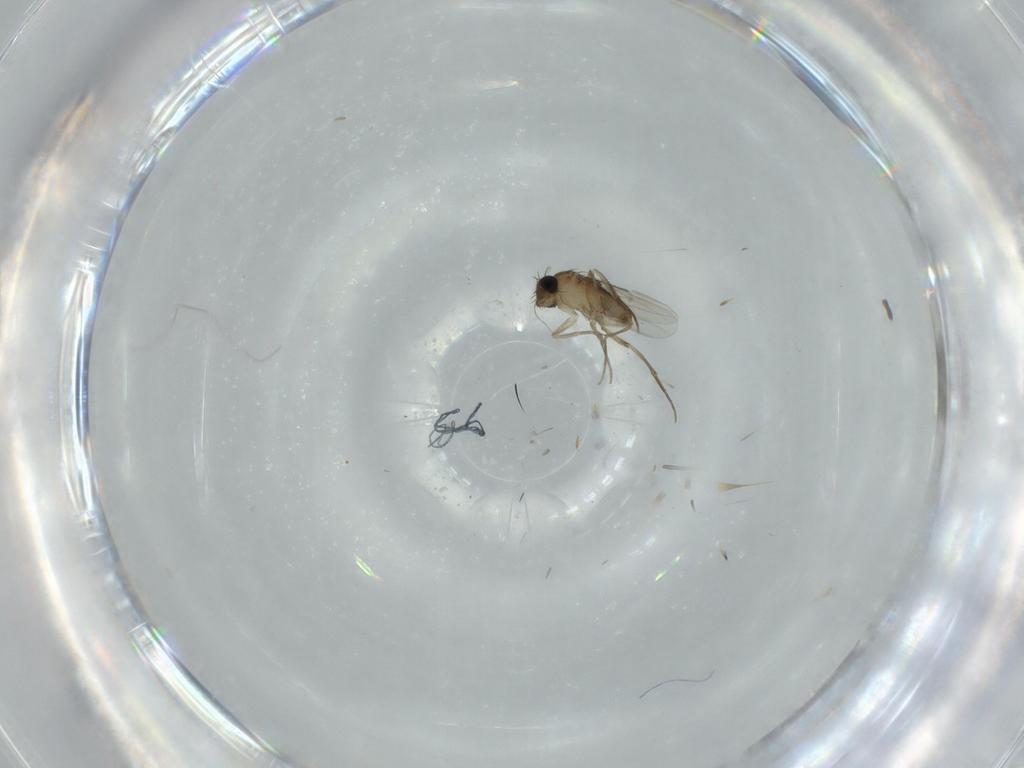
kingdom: Animalia
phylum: Arthropoda
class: Insecta
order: Diptera
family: Phoridae
